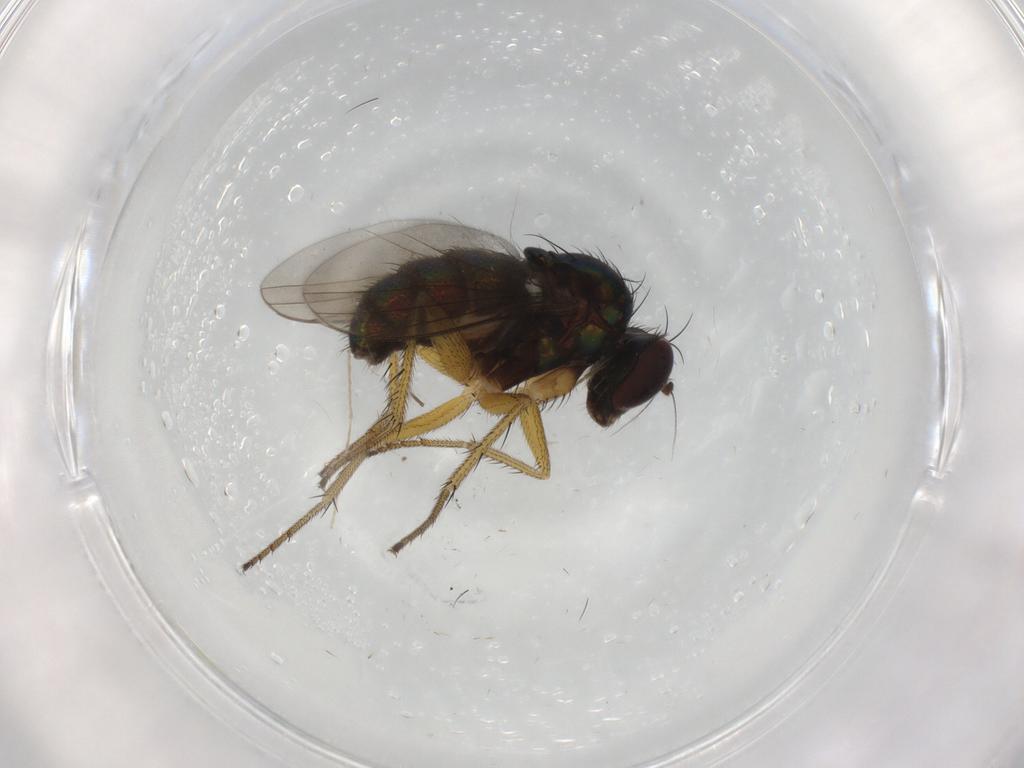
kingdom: Animalia
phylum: Arthropoda
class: Insecta
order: Diptera
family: Dolichopodidae
